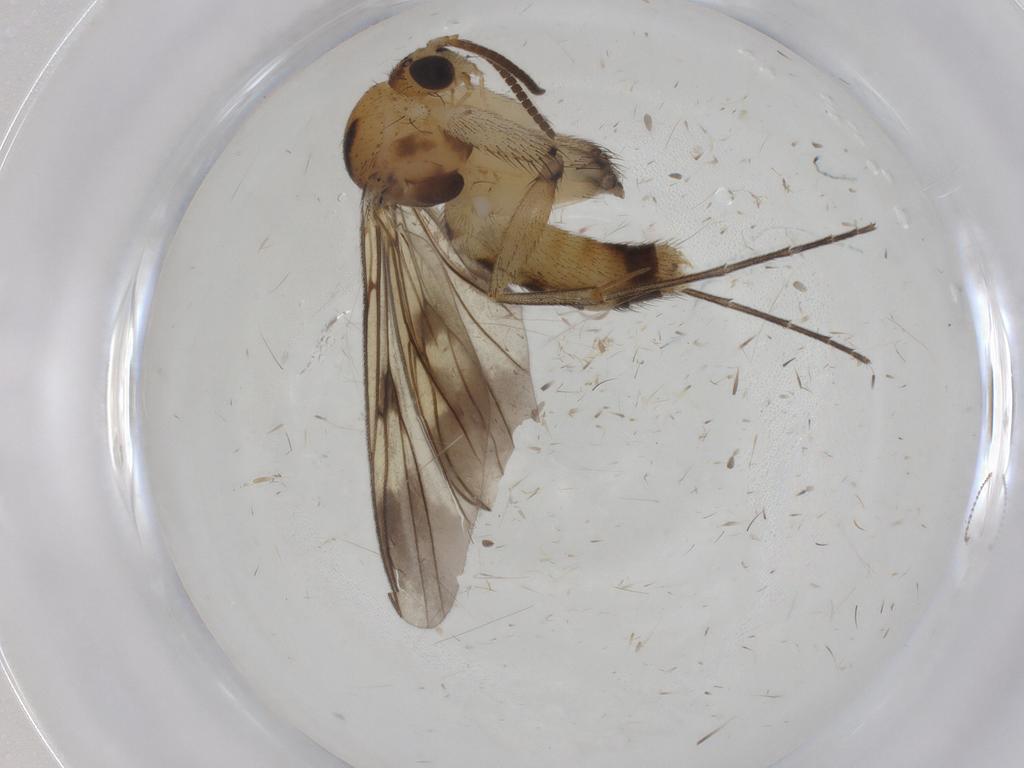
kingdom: Animalia
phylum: Arthropoda
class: Insecta
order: Diptera
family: Mycetophilidae
